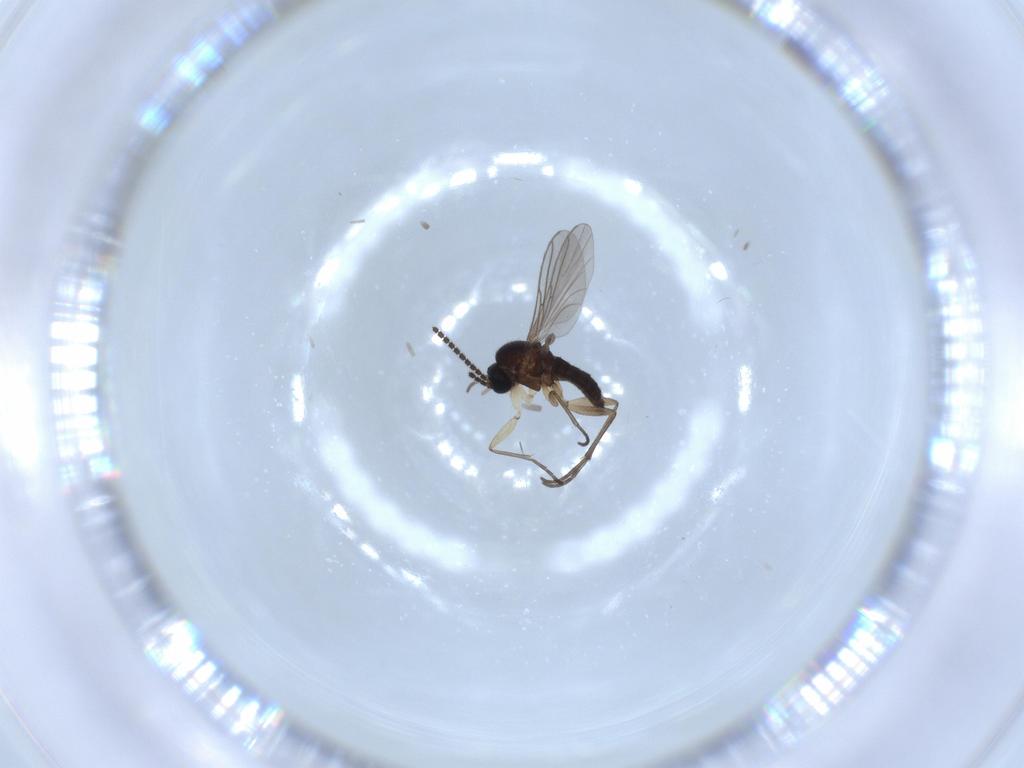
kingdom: Animalia
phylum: Arthropoda
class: Insecta
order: Diptera
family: Sciaridae
